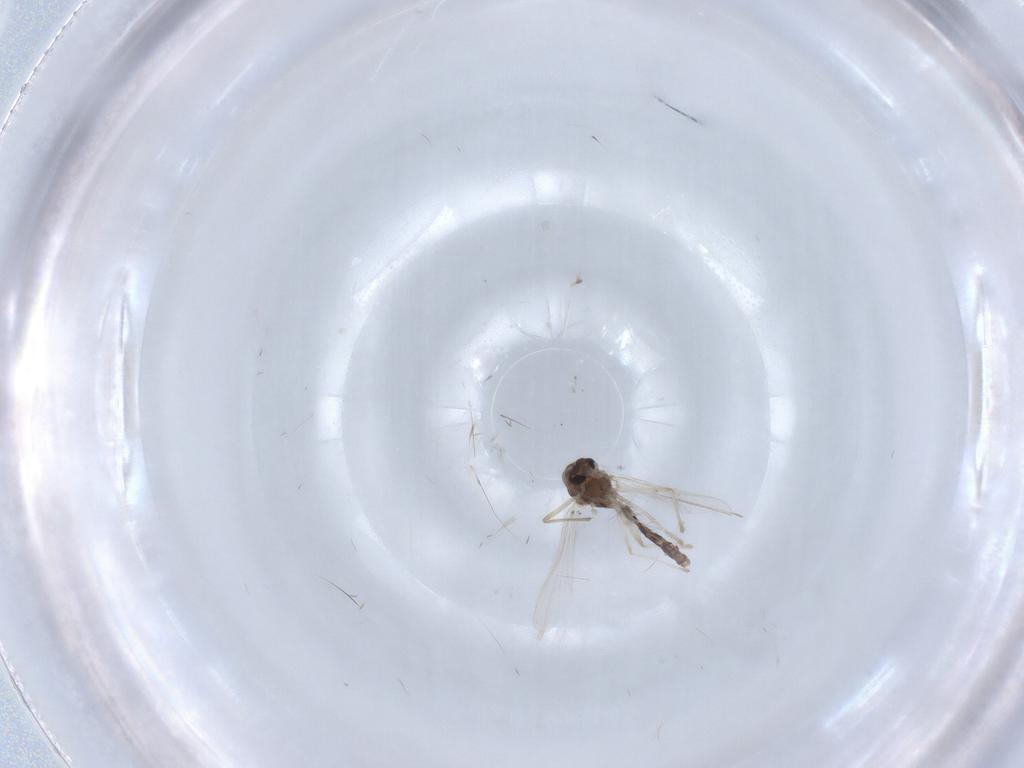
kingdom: Animalia
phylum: Arthropoda
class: Insecta
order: Diptera
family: Chironomidae
